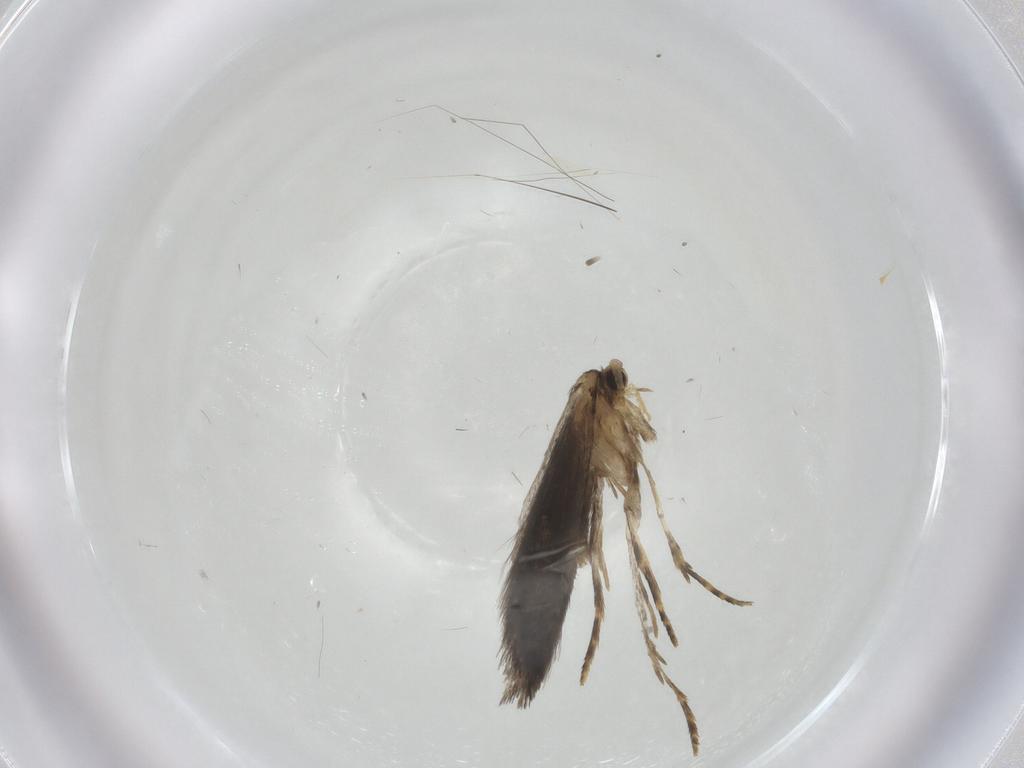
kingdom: Animalia
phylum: Arthropoda
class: Insecta
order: Lepidoptera
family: Tineidae
